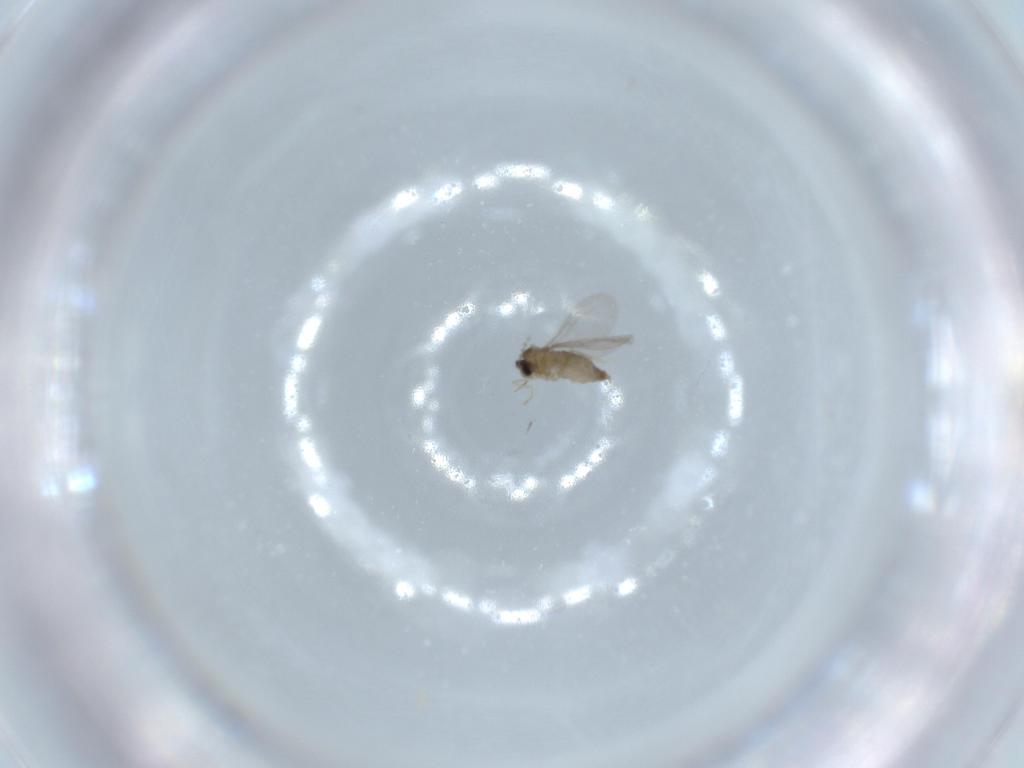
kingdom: Animalia
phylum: Arthropoda
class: Insecta
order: Diptera
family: Cecidomyiidae
